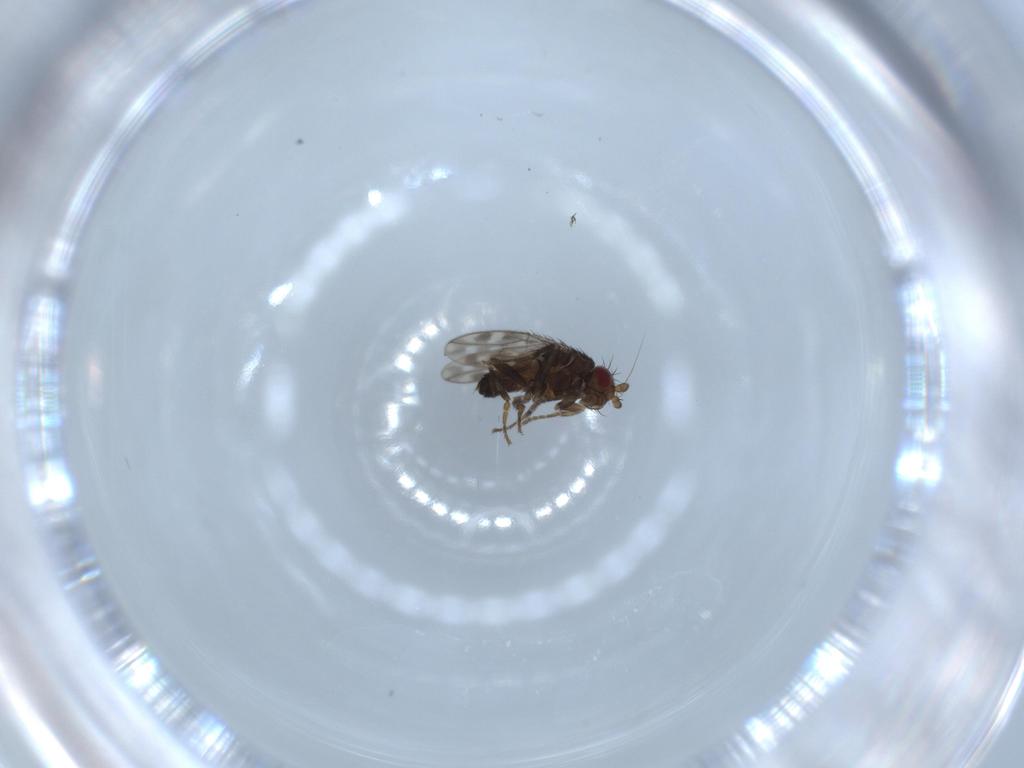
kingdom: Animalia
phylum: Arthropoda
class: Insecta
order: Diptera
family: Sphaeroceridae
